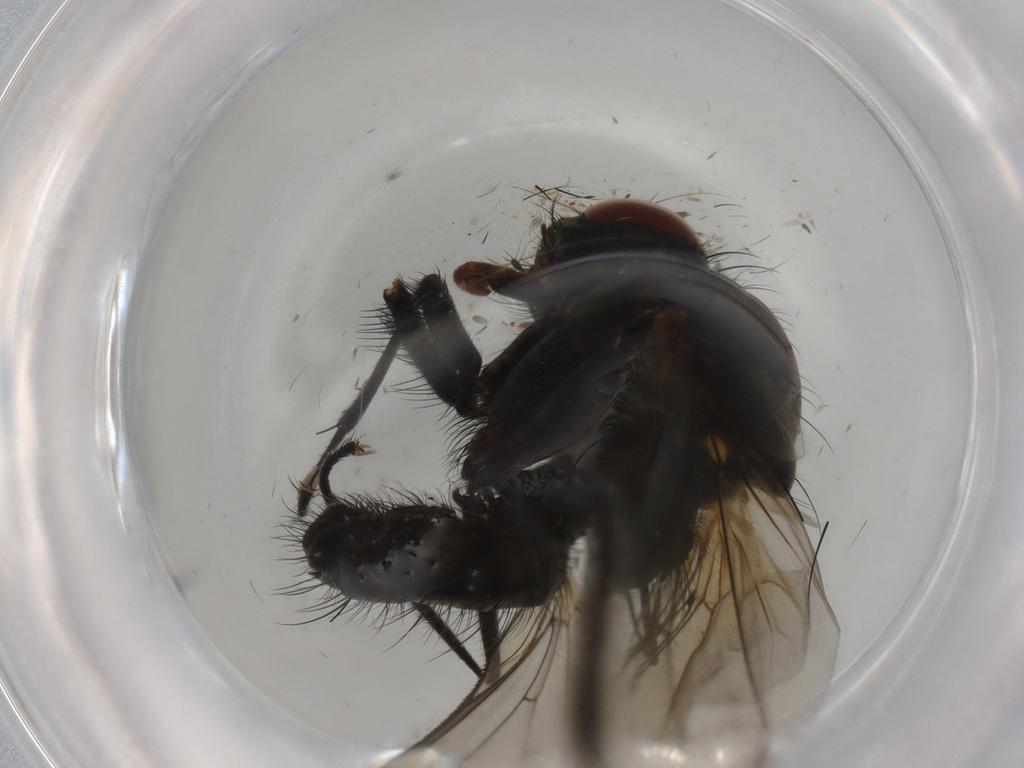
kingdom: Animalia
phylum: Arthropoda
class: Insecta
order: Diptera
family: Anthomyiidae
